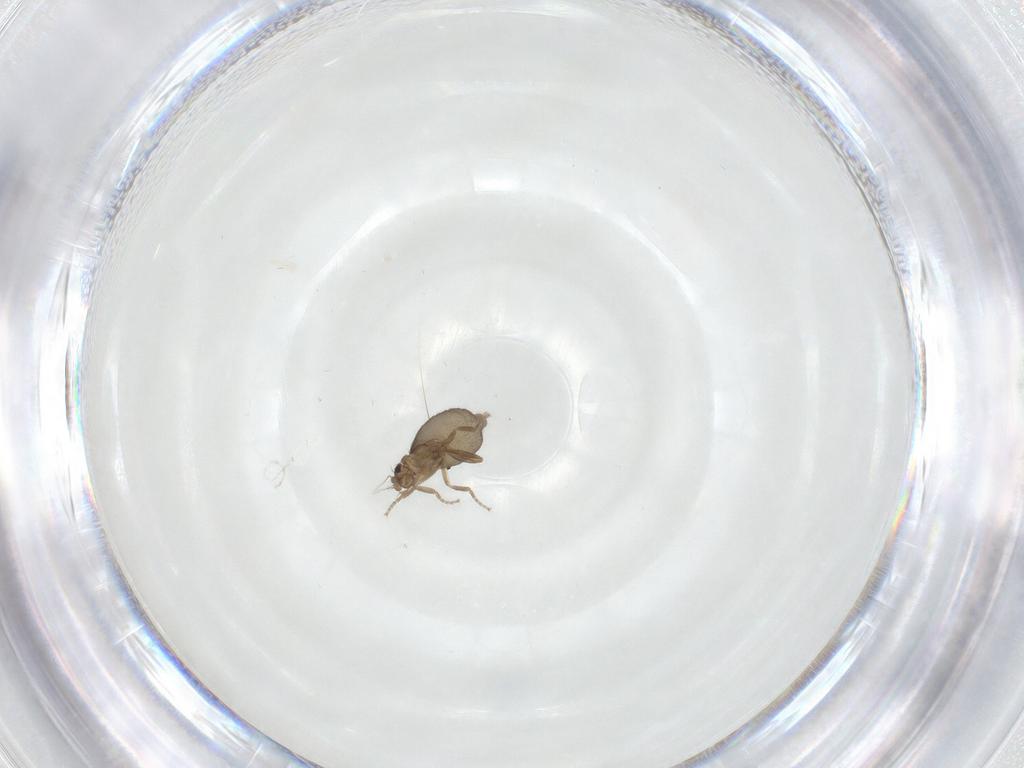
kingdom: Animalia
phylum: Arthropoda
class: Insecta
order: Diptera
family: Phoridae
